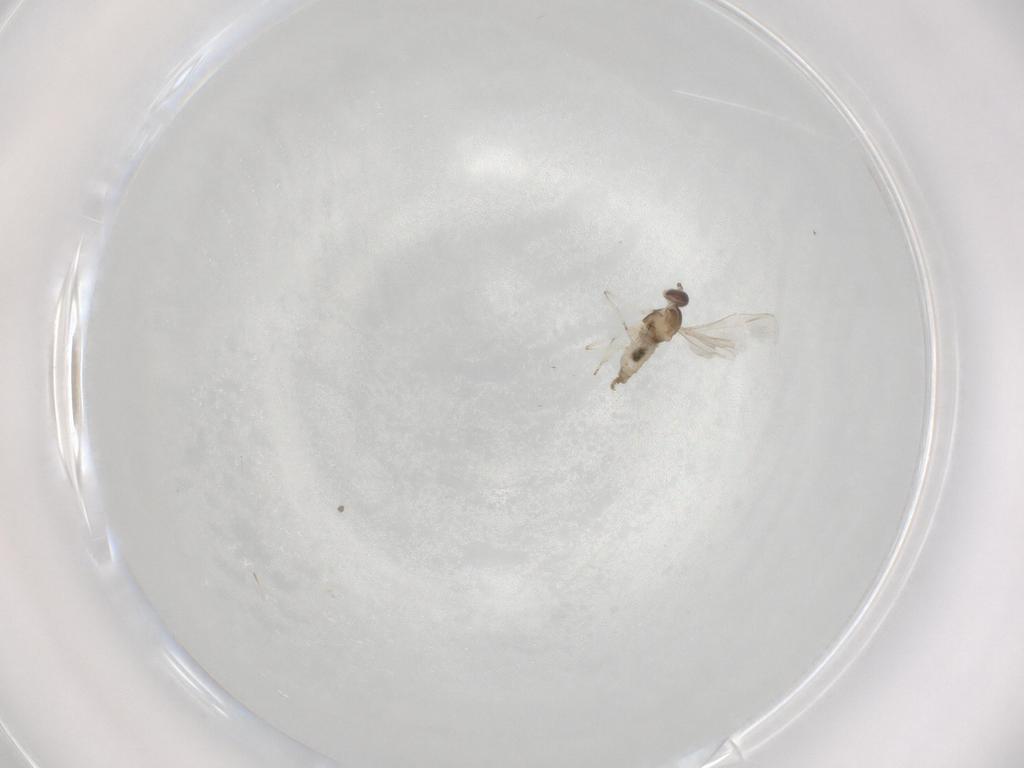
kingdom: Animalia
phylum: Arthropoda
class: Insecta
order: Diptera
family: Cecidomyiidae
